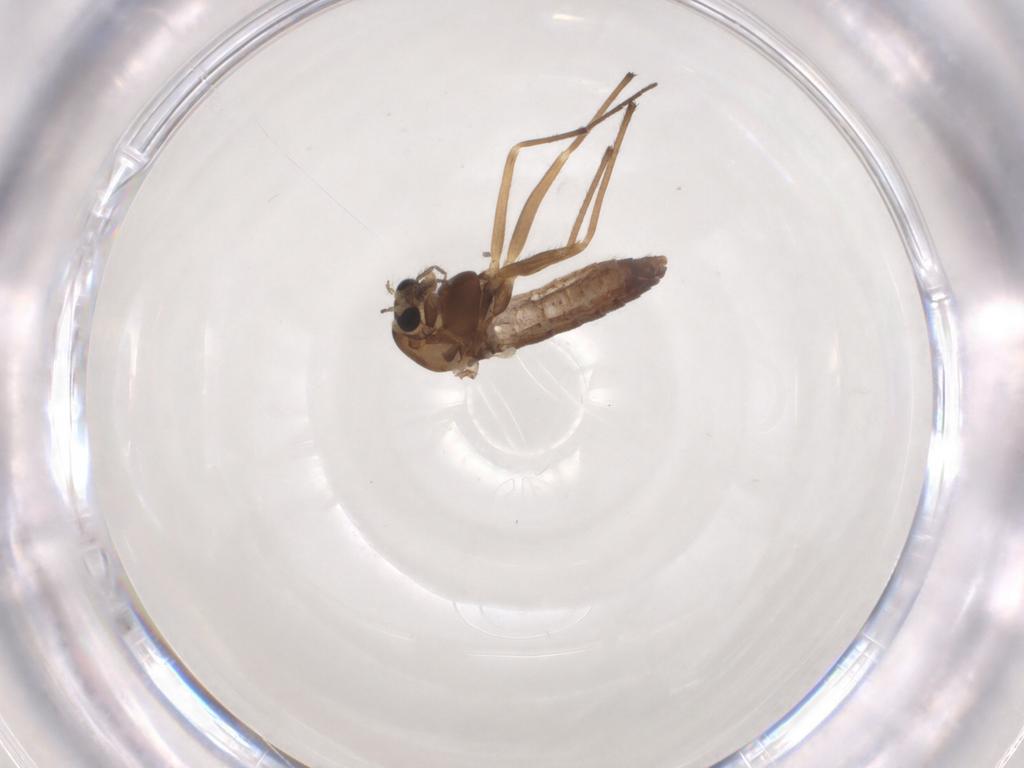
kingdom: Animalia
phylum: Arthropoda
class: Insecta
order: Diptera
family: Chironomidae
